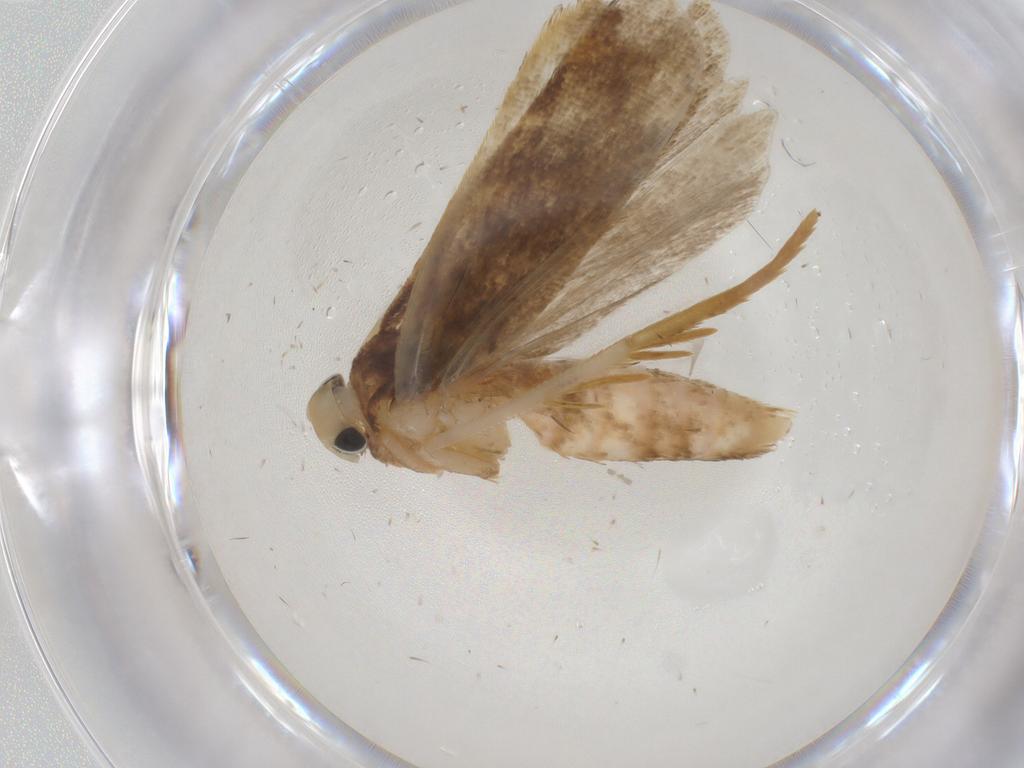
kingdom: Animalia
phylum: Arthropoda
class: Insecta
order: Lepidoptera
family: Gelechiidae
